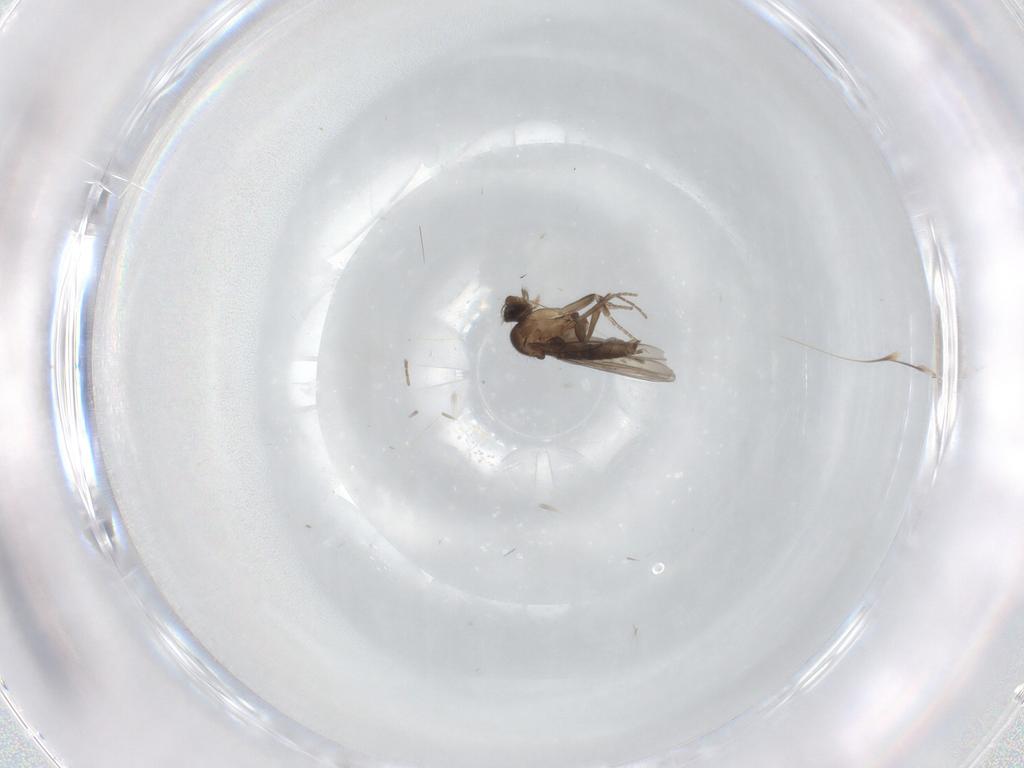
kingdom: Animalia
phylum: Arthropoda
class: Insecta
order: Diptera
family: Phoridae
